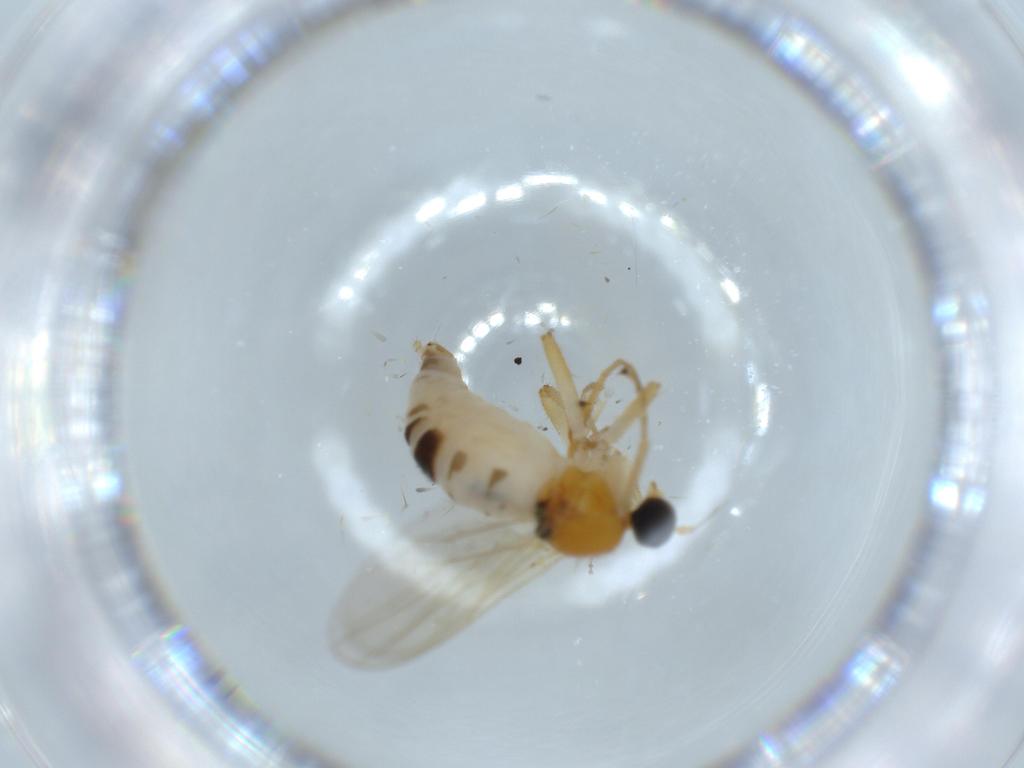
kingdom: Animalia
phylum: Arthropoda
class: Insecta
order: Diptera
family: Hybotidae
